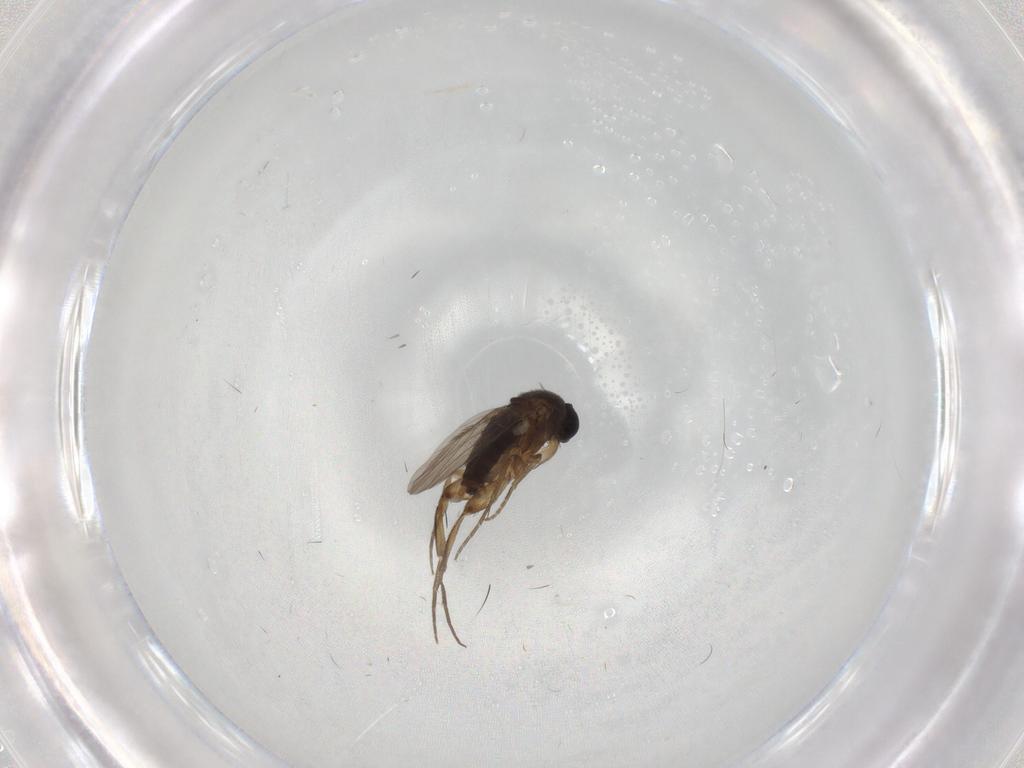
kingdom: Animalia
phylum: Arthropoda
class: Insecta
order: Diptera
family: Phoridae
